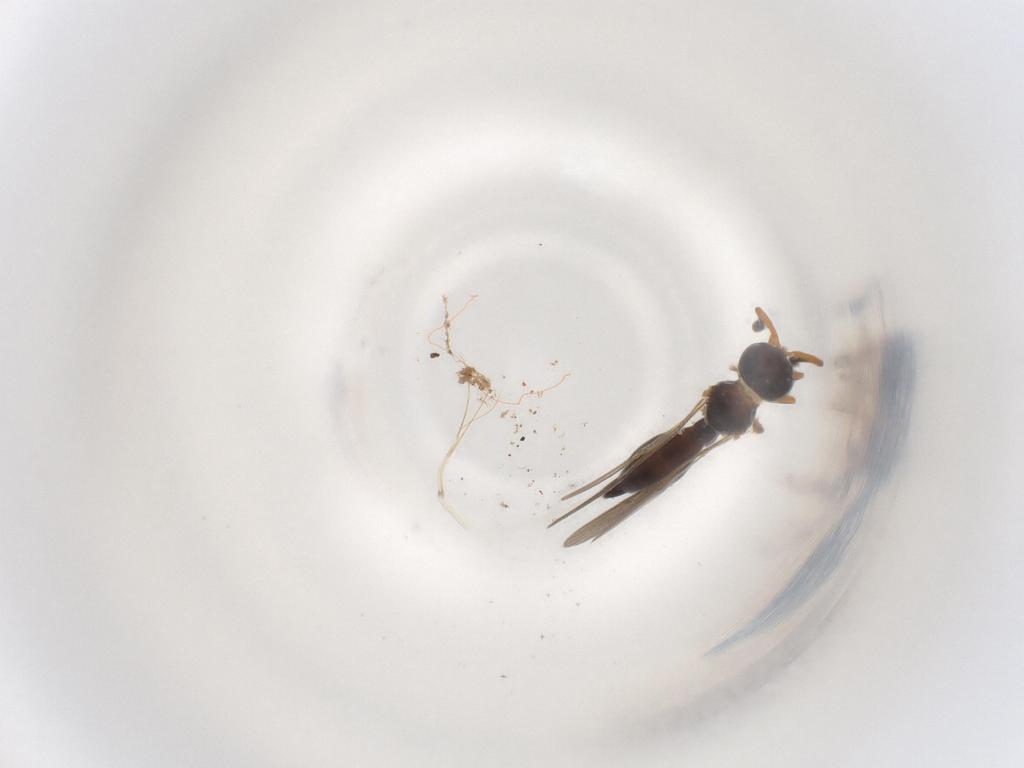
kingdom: Animalia
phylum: Arthropoda
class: Insecta
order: Hymenoptera
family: Scelionidae
